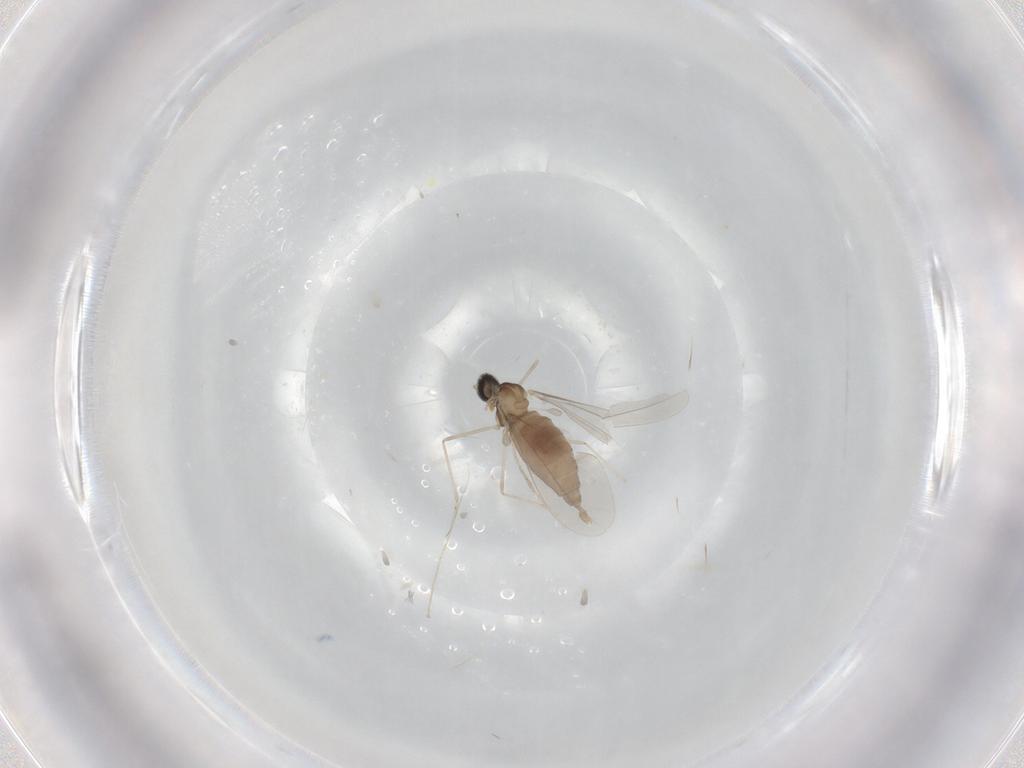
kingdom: Animalia
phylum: Arthropoda
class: Insecta
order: Diptera
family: Cecidomyiidae
